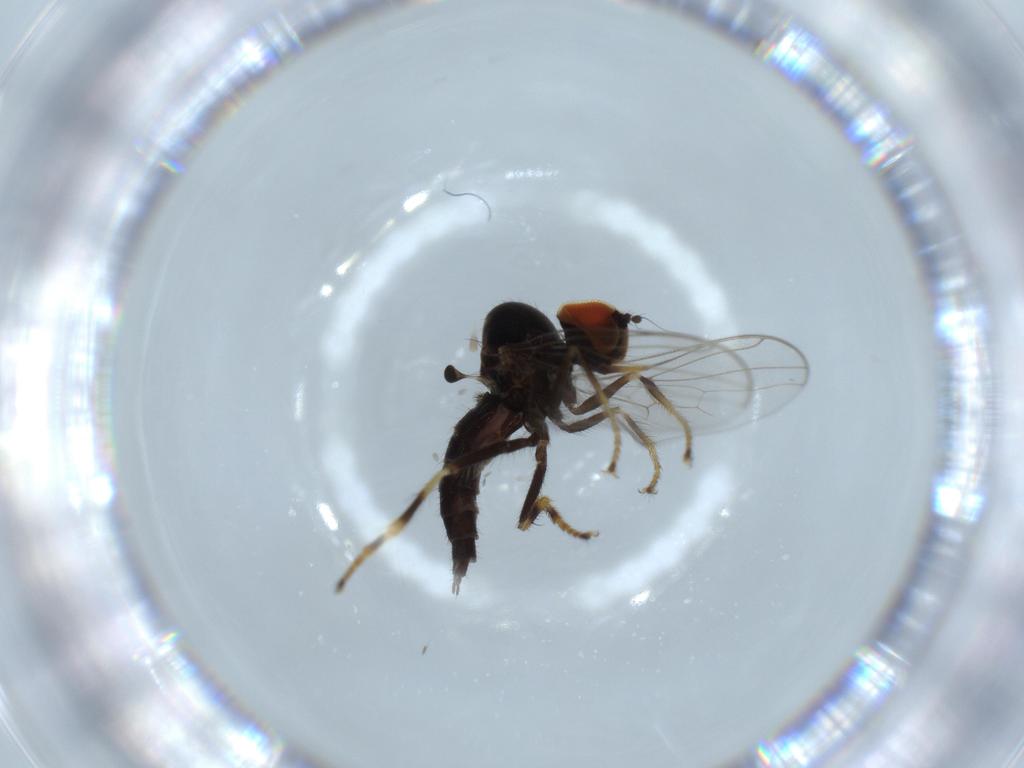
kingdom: Animalia
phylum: Arthropoda
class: Insecta
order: Diptera
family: Hybotidae
